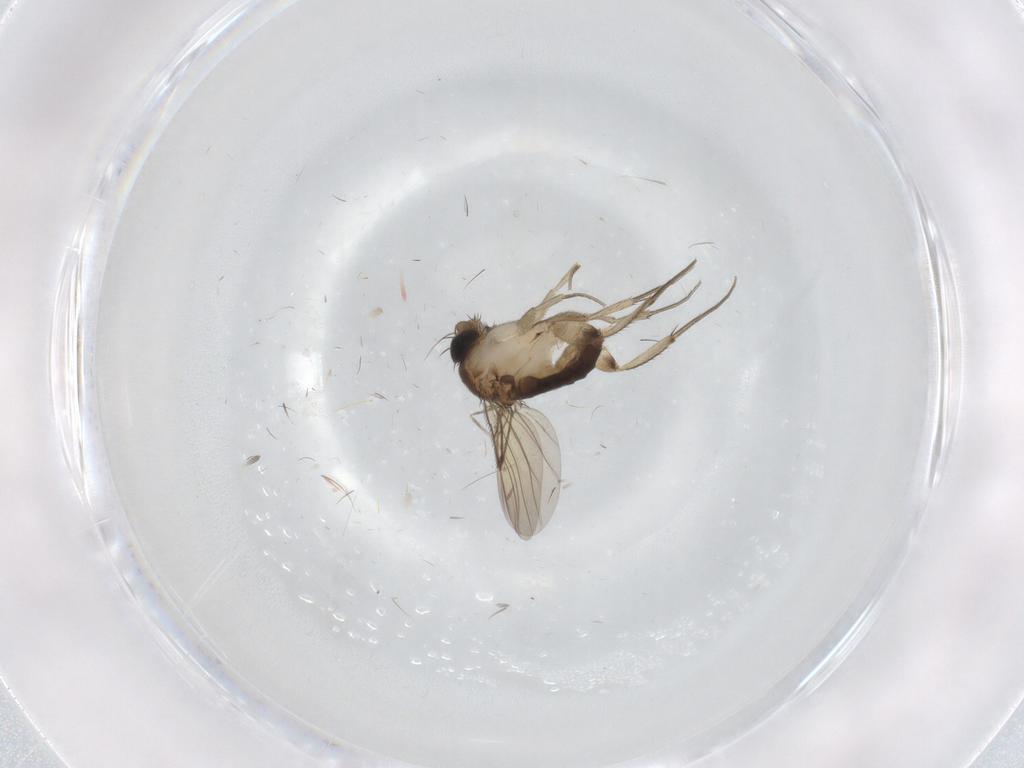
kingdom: Animalia
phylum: Arthropoda
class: Insecta
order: Diptera
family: Phoridae
